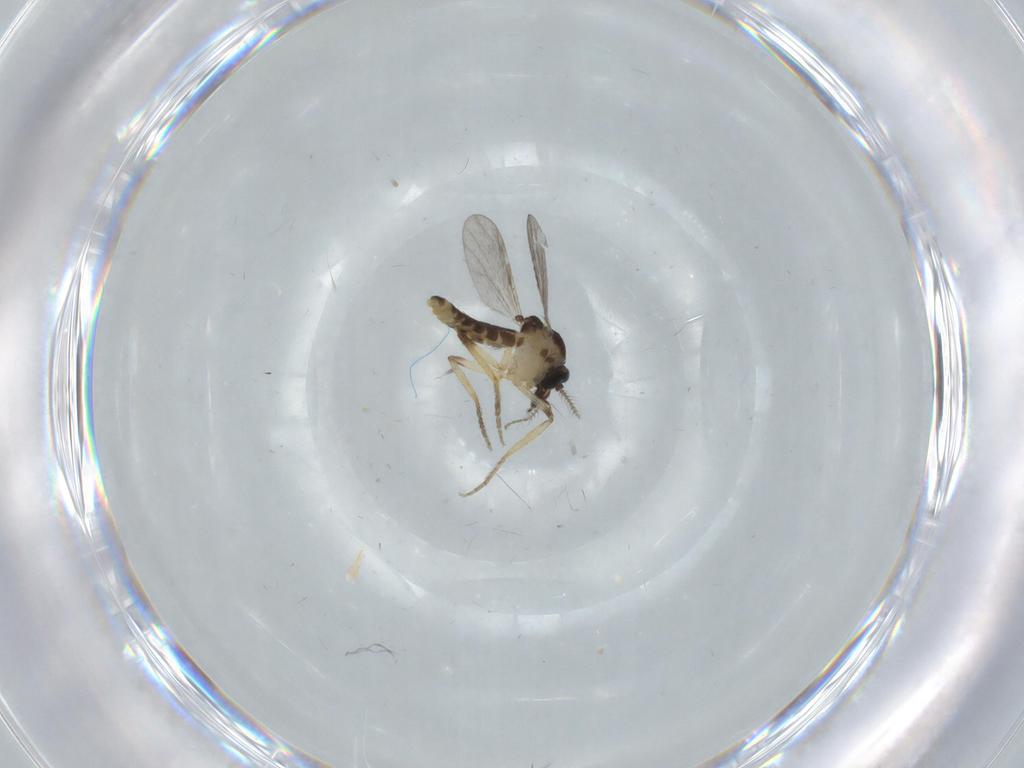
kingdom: Animalia
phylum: Arthropoda
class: Insecta
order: Diptera
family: Ceratopogonidae
